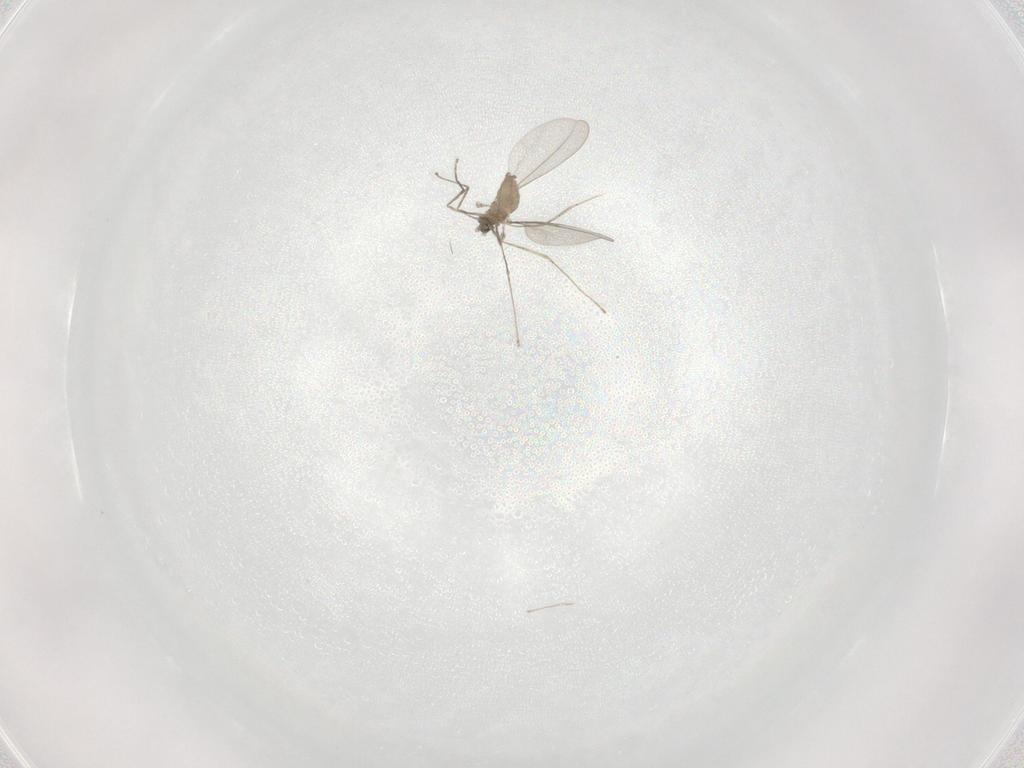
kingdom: Animalia
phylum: Arthropoda
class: Insecta
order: Diptera
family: Cecidomyiidae
